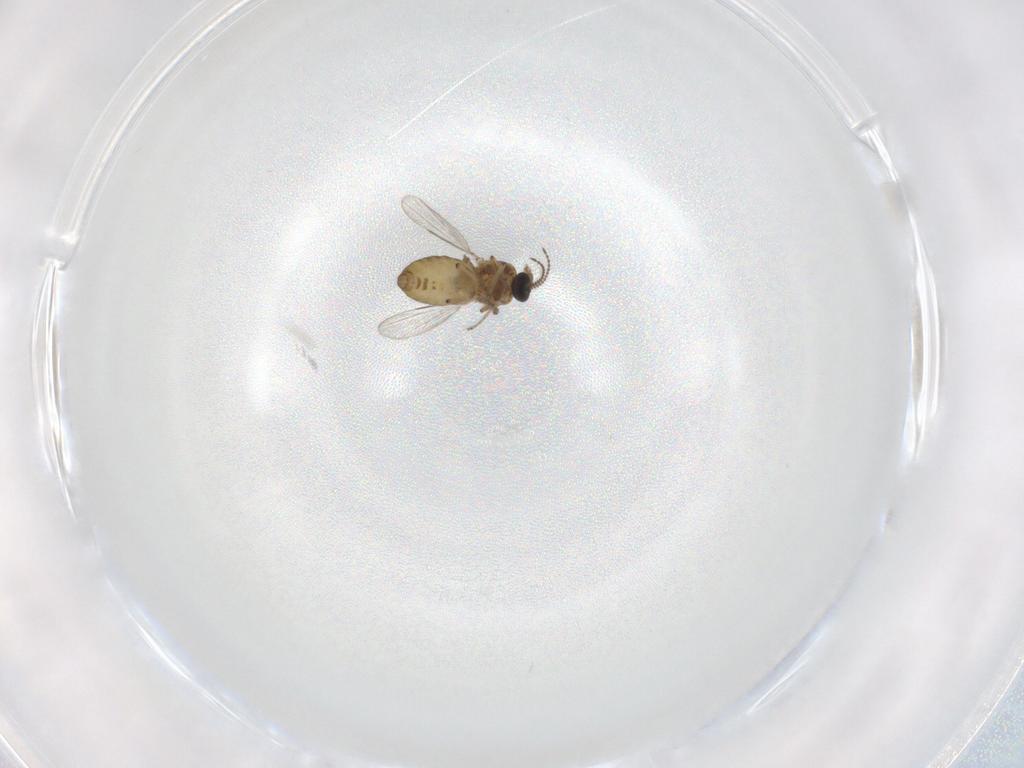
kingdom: Animalia
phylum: Arthropoda
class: Insecta
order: Diptera
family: Ceratopogonidae
